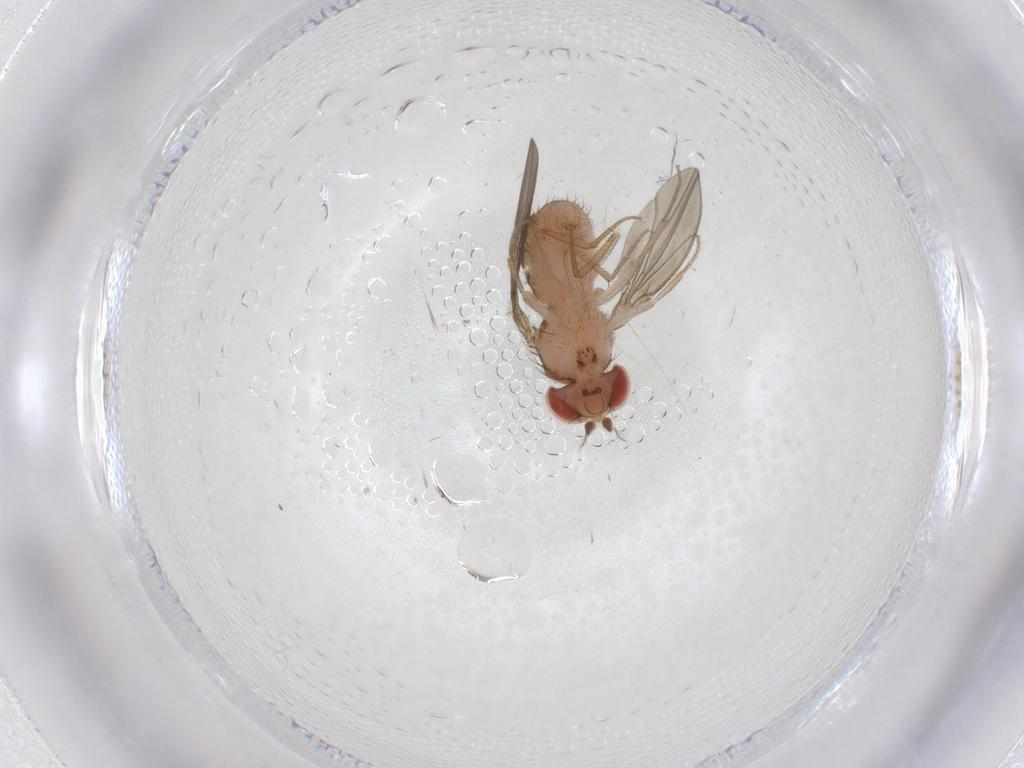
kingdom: Animalia
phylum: Arthropoda
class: Insecta
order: Diptera
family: Drosophilidae
